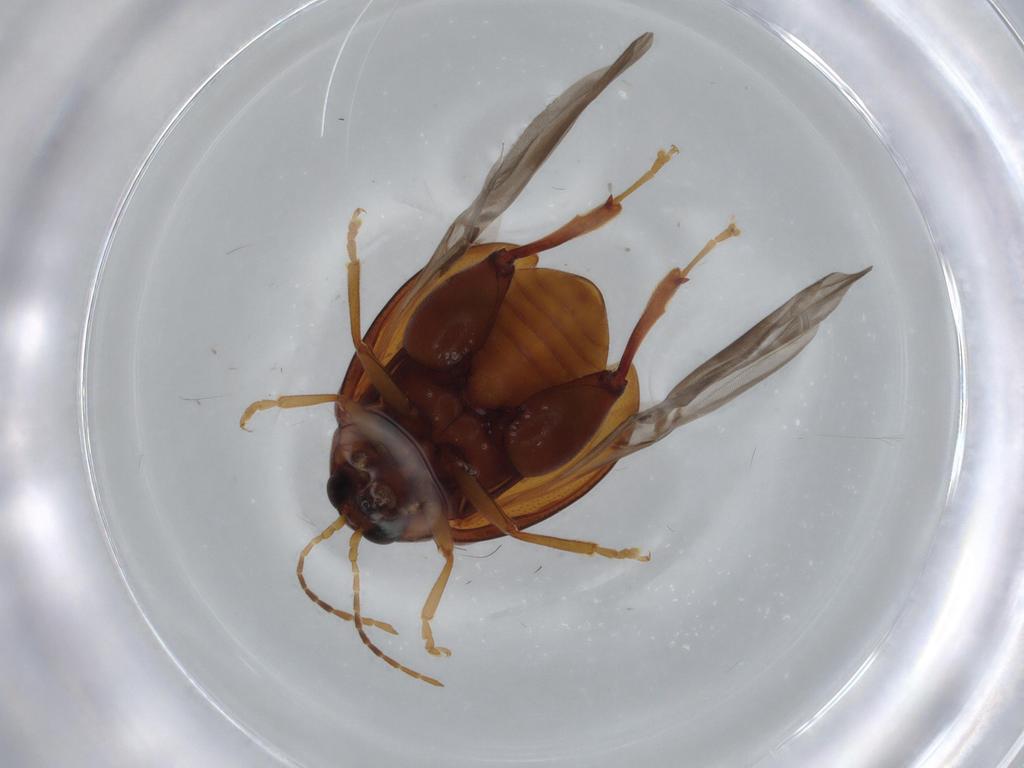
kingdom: Animalia
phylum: Arthropoda
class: Insecta
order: Coleoptera
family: Chrysomelidae
